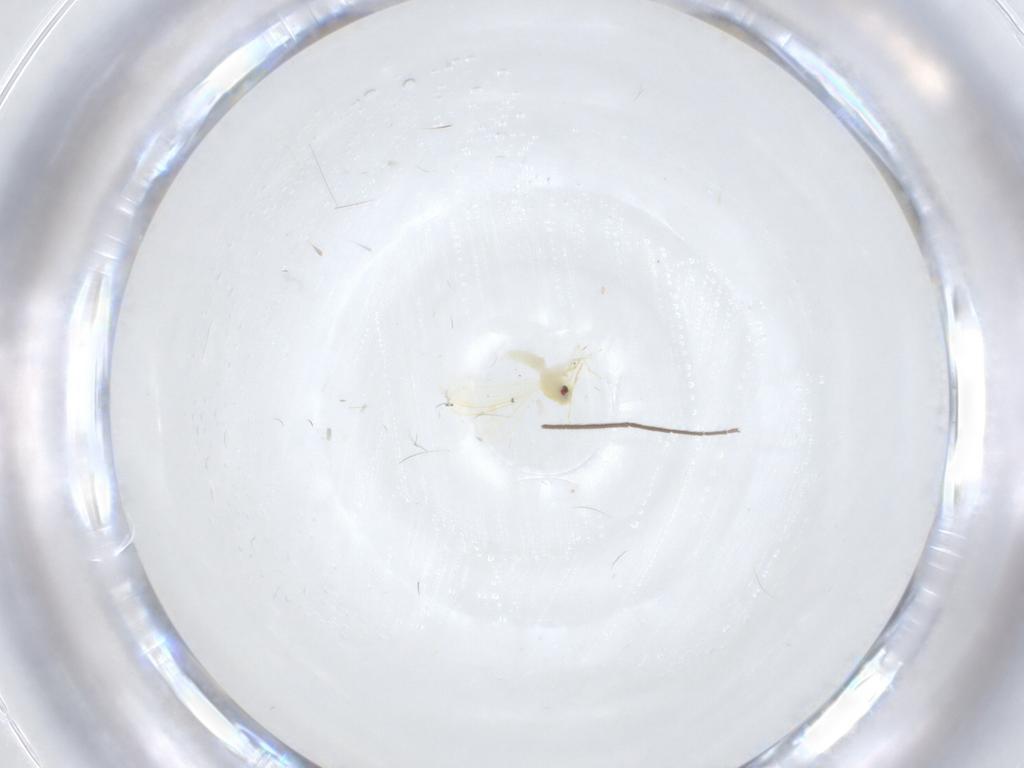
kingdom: Animalia
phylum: Arthropoda
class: Insecta
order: Hemiptera
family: Aleyrodidae
